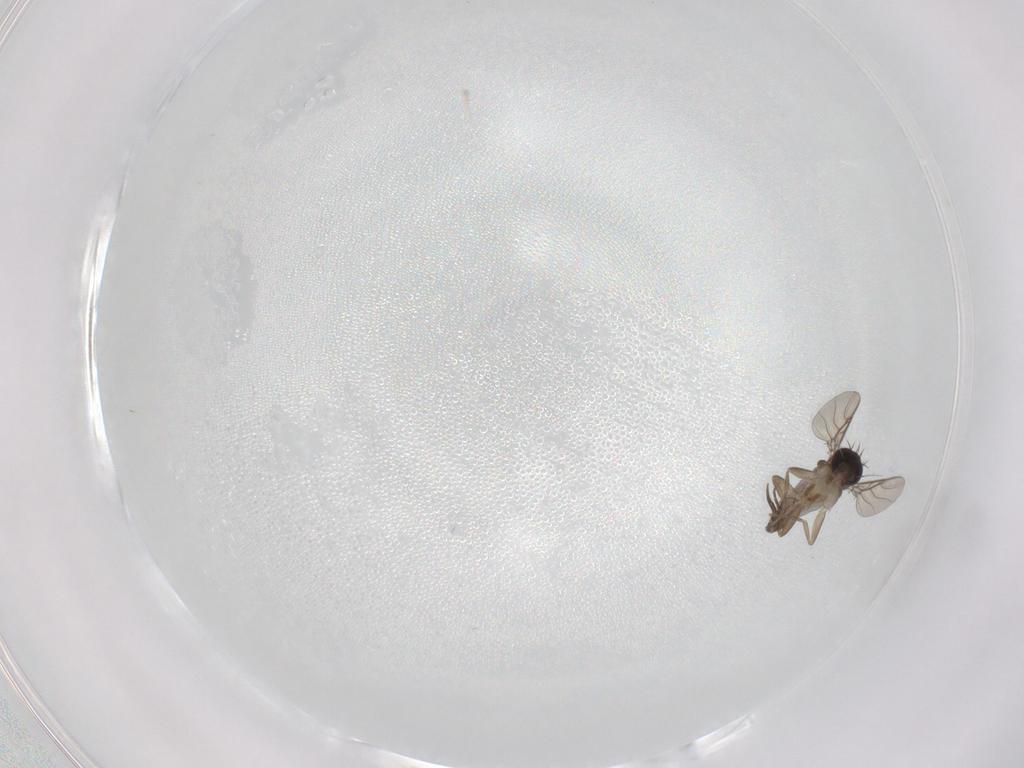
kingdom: Animalia
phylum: Arthropoda
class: Insecta
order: Diptera
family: Phoridae
